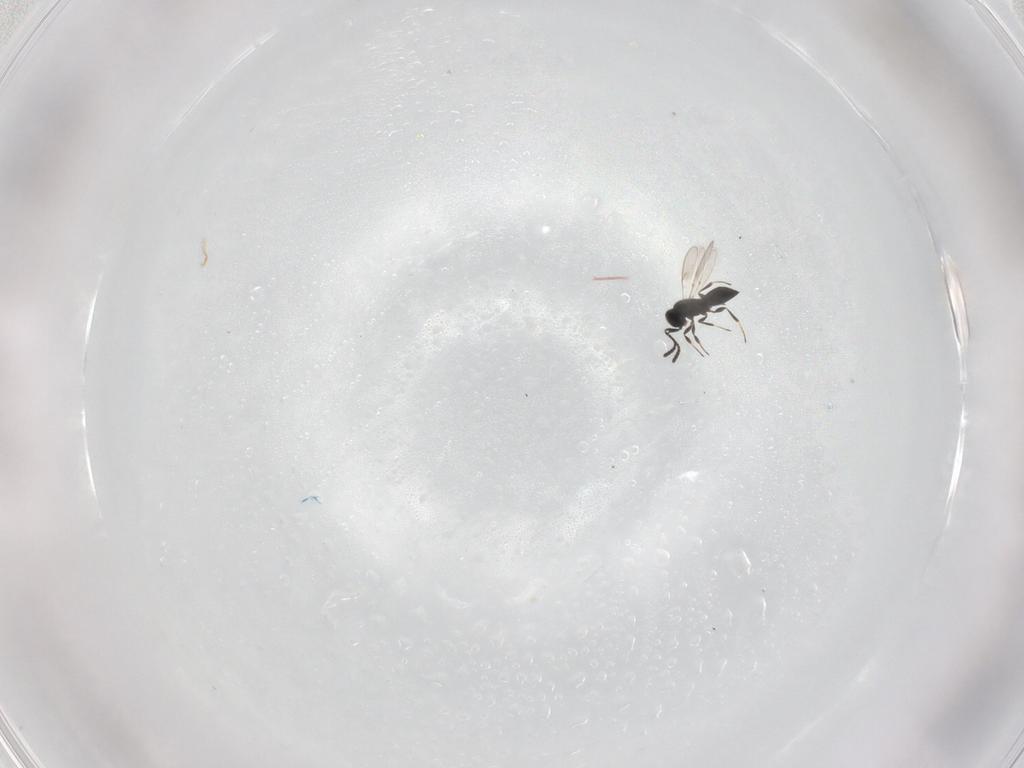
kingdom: Animalia
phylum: Arthropoda
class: Insecta
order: Hymenoptera
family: Scelionidae
